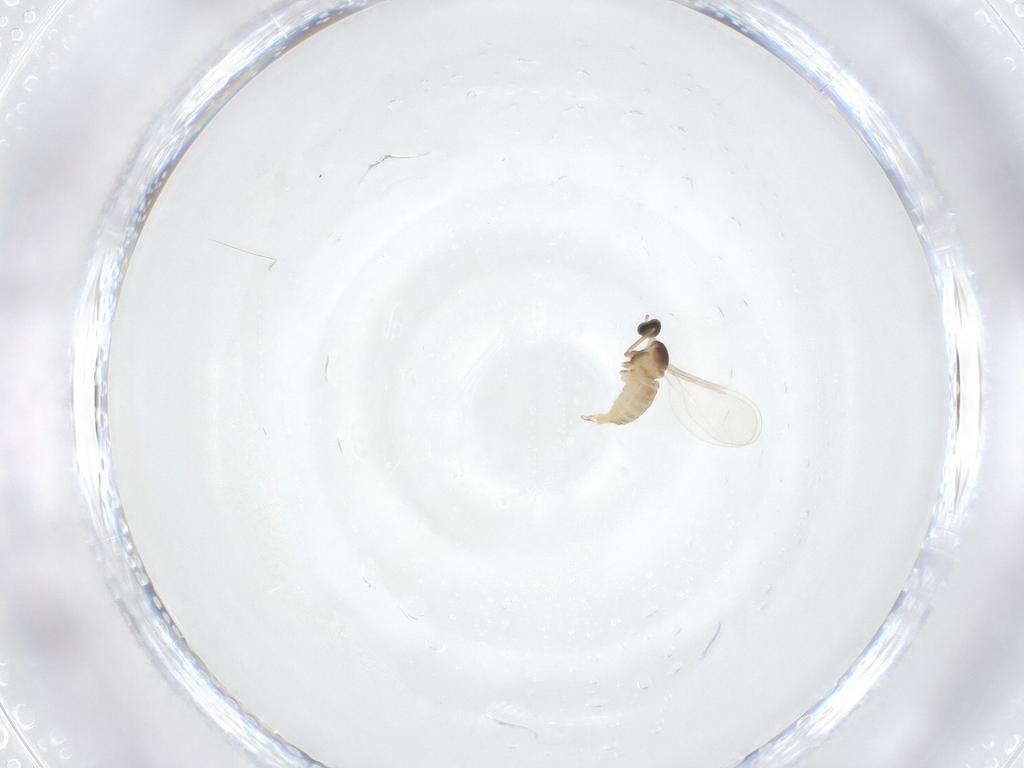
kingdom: Animalia
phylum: Arthropoda
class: Insecta
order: Diptera
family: Cecidomyiidae
